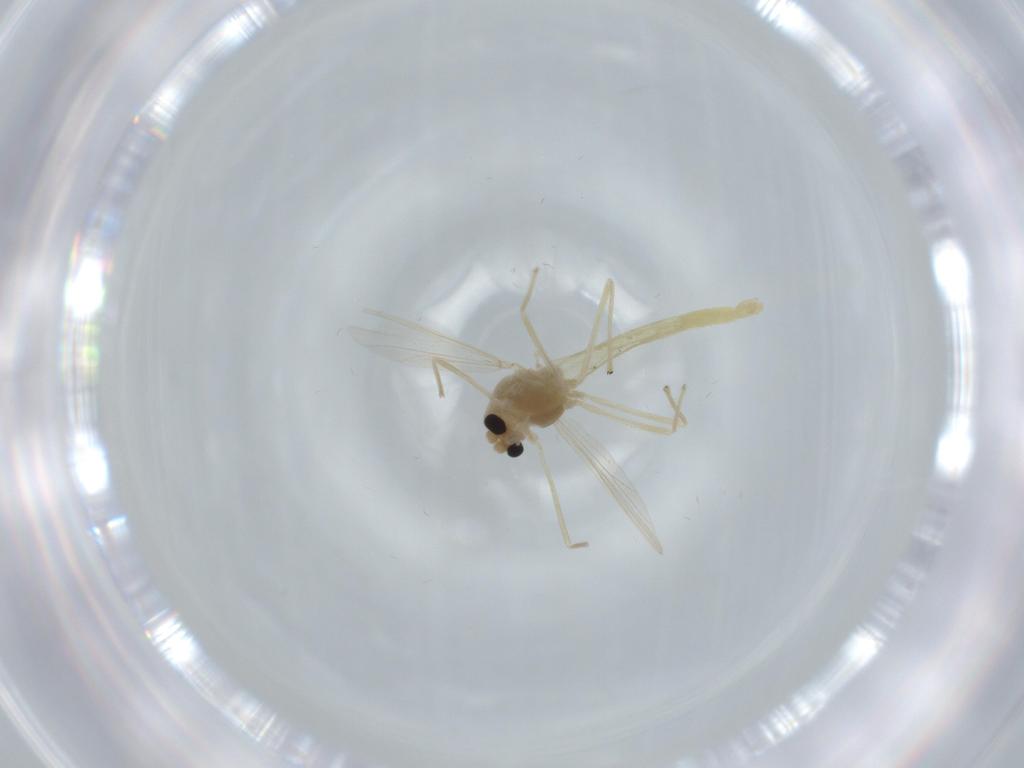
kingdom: Animalia
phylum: Arthropoda
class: Insecta
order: Diptera
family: Chironomidae
